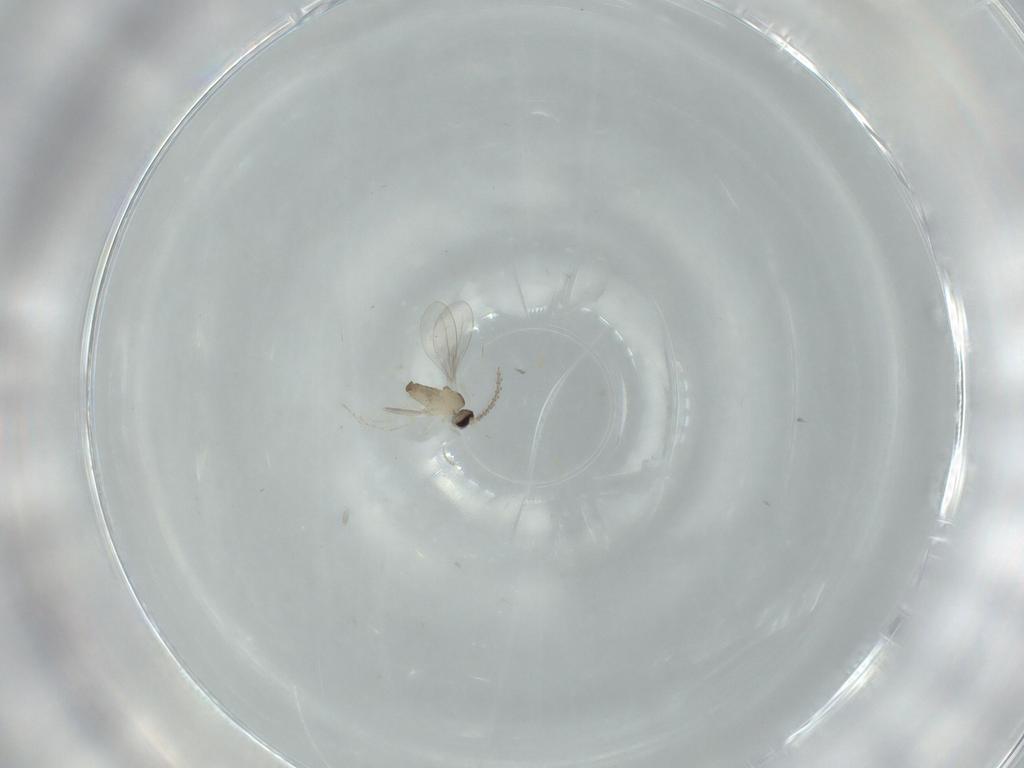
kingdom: Animalia
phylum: Arthropoda
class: Insecta
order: Diptera
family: Cecidomyiidae
